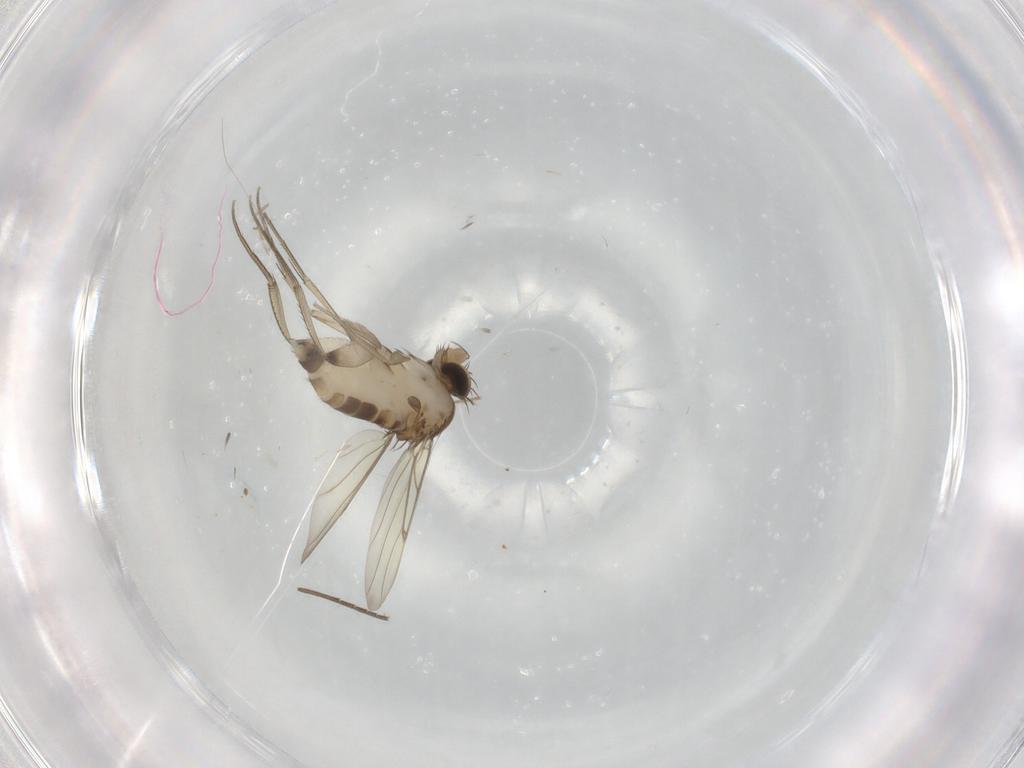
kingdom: Animalia
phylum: Arthropoda
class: Insecta
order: Diptera
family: Phoridae
